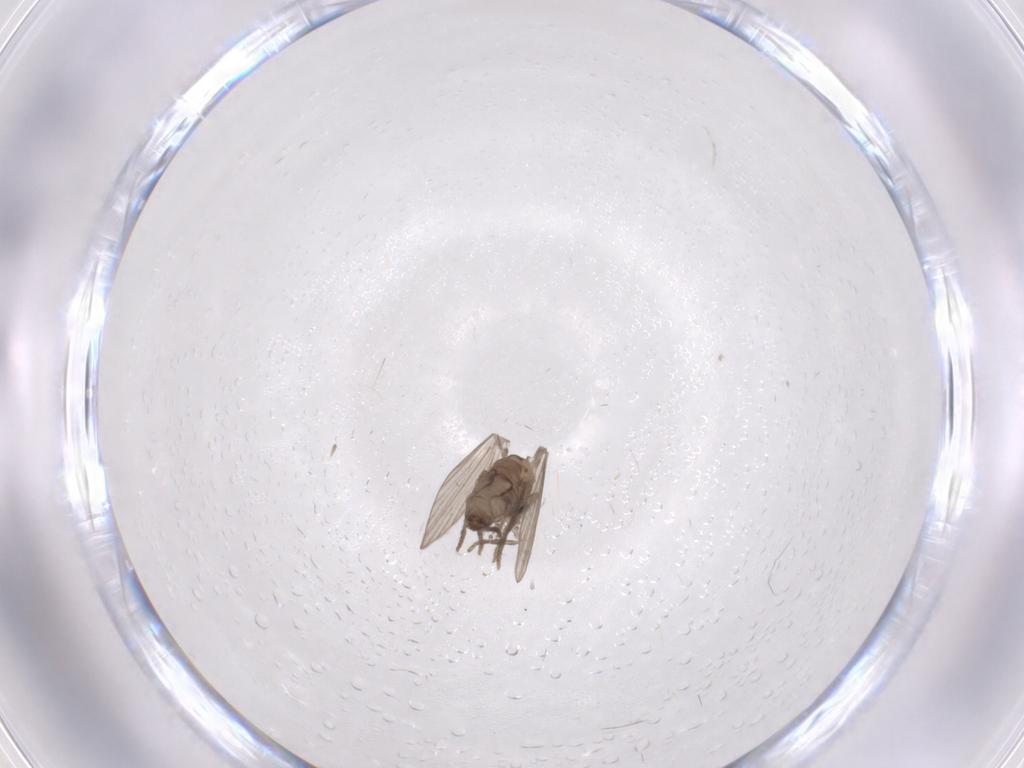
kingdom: Animalia
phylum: Arthropoda
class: Insecta
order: Diptera
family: Psychodidae
